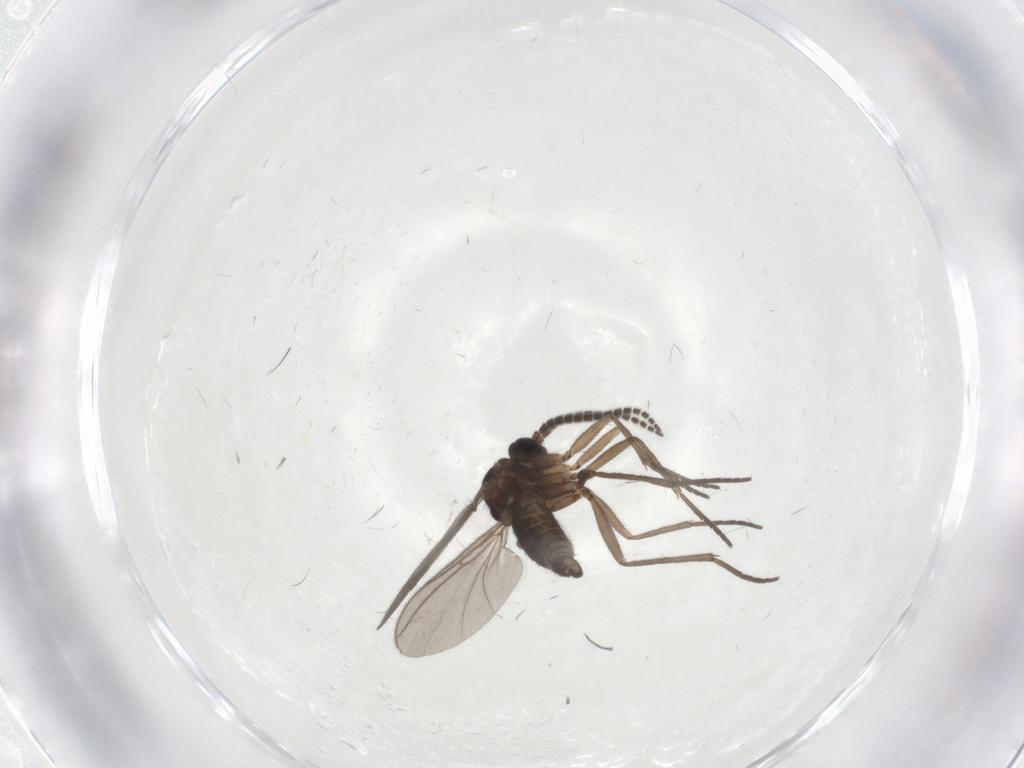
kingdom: Animalia
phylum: Arthropoda
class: Insecta
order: Diptera
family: Sciaridae
